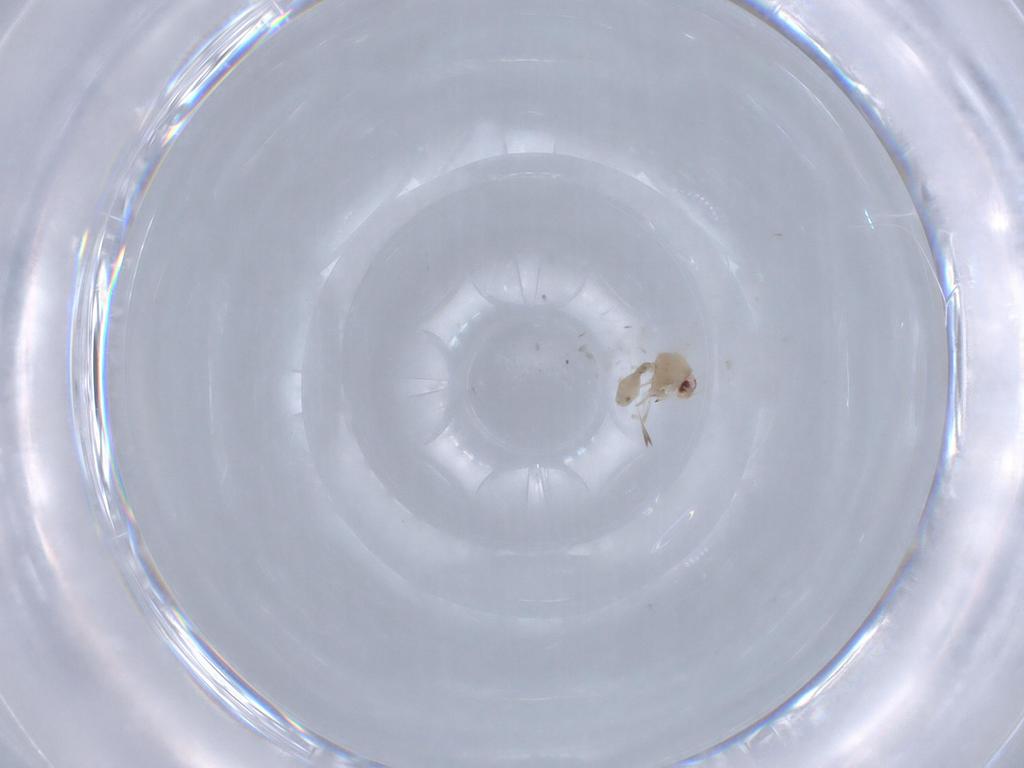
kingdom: Animalia
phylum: Arthropoda
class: Insecta
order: Hemiptera
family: Aleyrodidae
